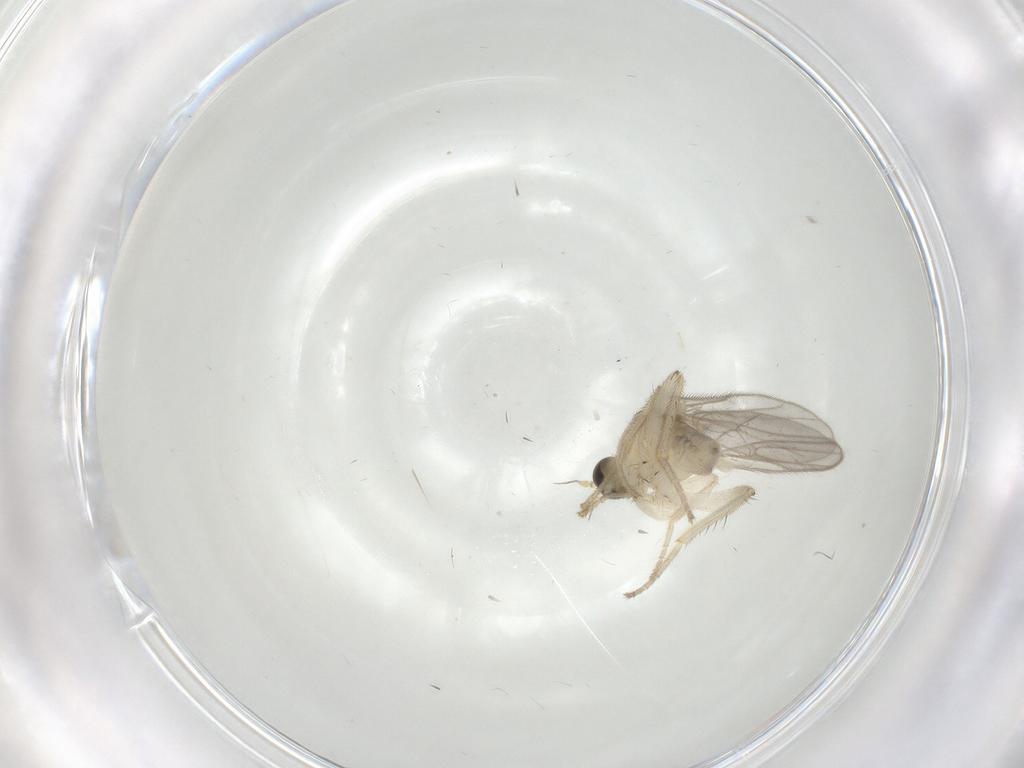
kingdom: Animalia
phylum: Arthropoda
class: Insecta
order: Diptera
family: Hybotidae
